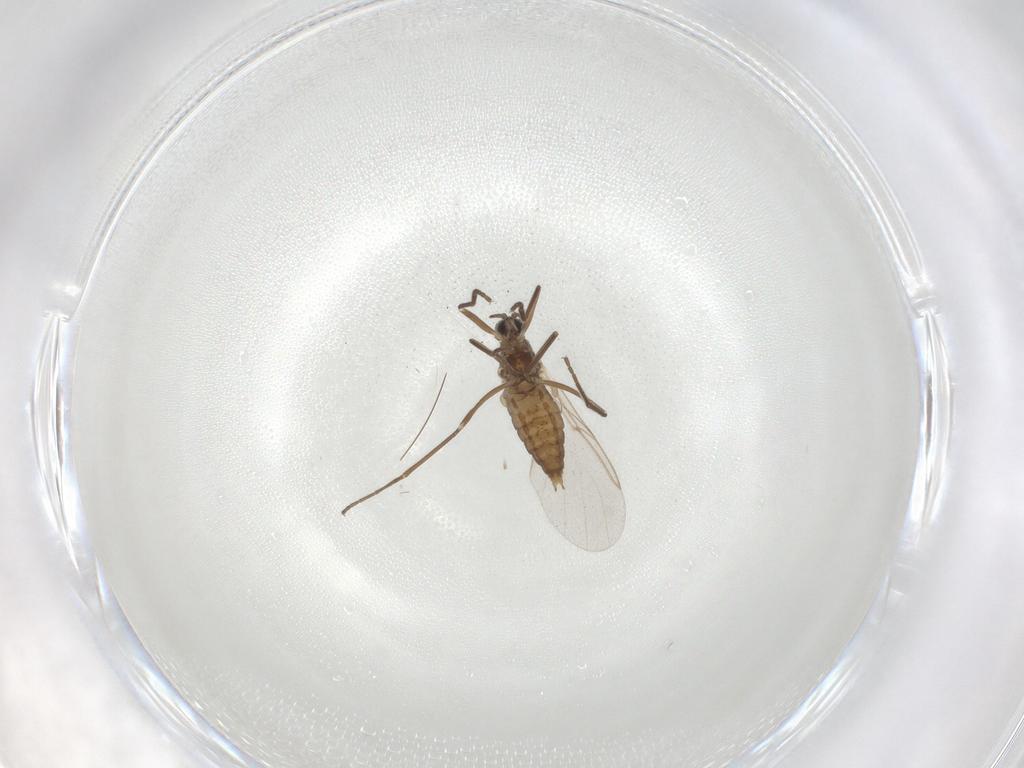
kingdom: Animalia
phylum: Arthropoda
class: Insecta
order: Diptera
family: Cecidomyiidae
